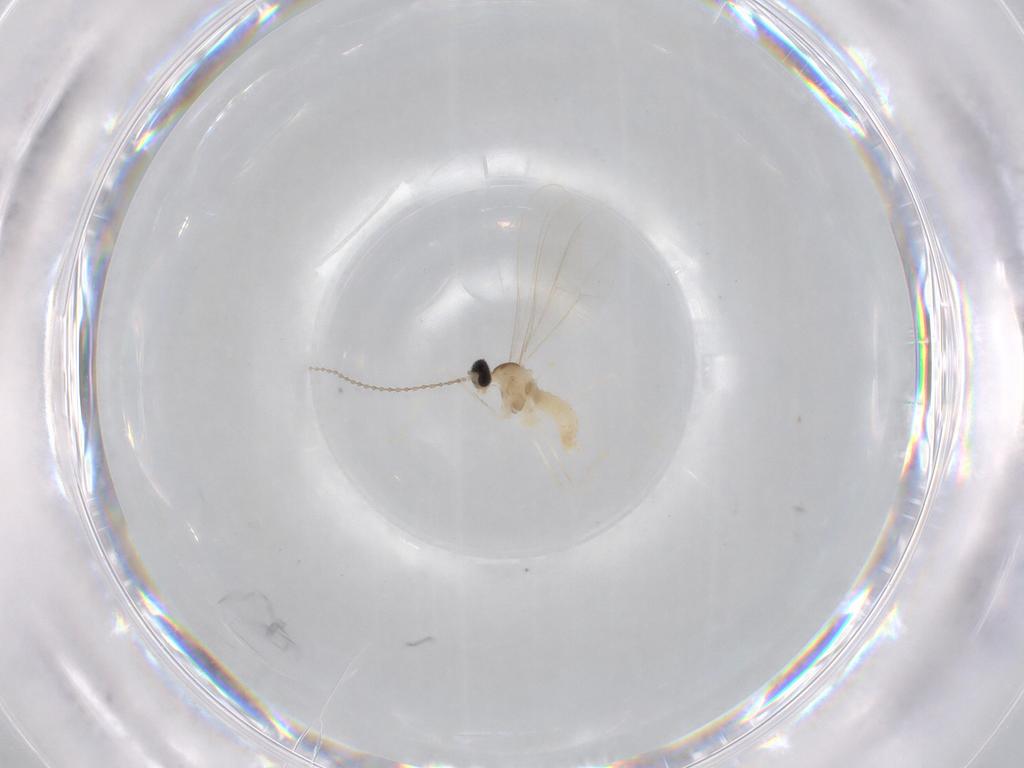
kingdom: Animalia
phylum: Arthropoda
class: Insecta
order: Diptera
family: Cecidomyiidae
